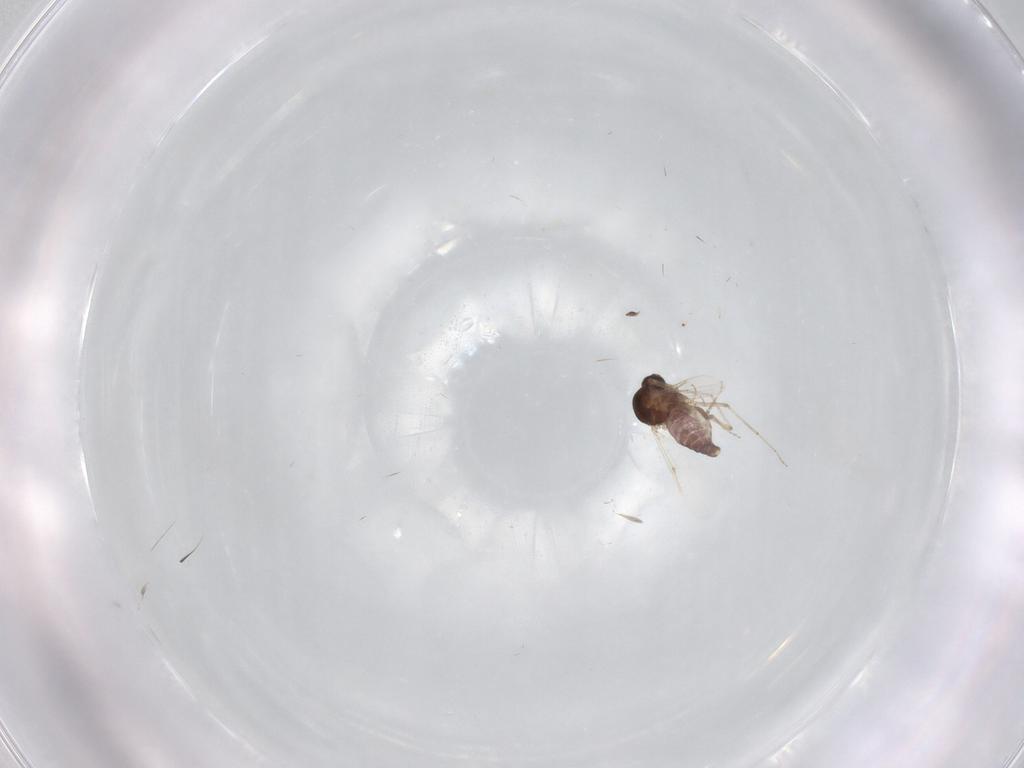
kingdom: Animalia
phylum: Arthropoda
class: Insecta
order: Diptera
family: Ceratopogonidae
